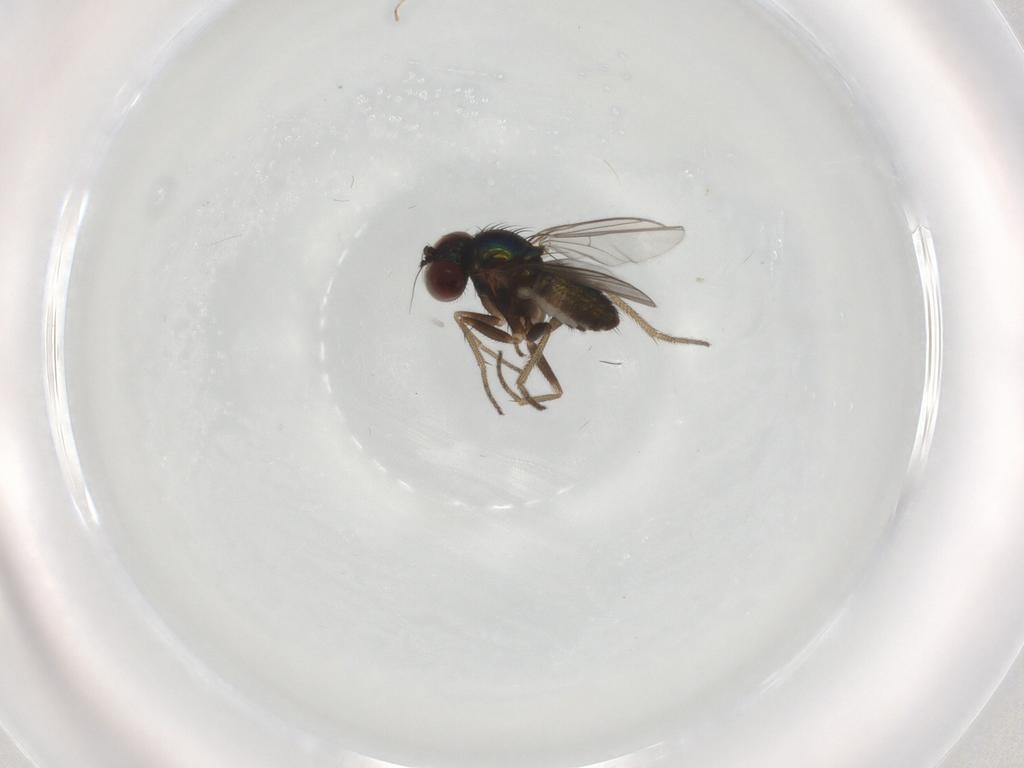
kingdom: Animalia
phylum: Arthropoda
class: Insecta
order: Diptera
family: Dolichopodidae
